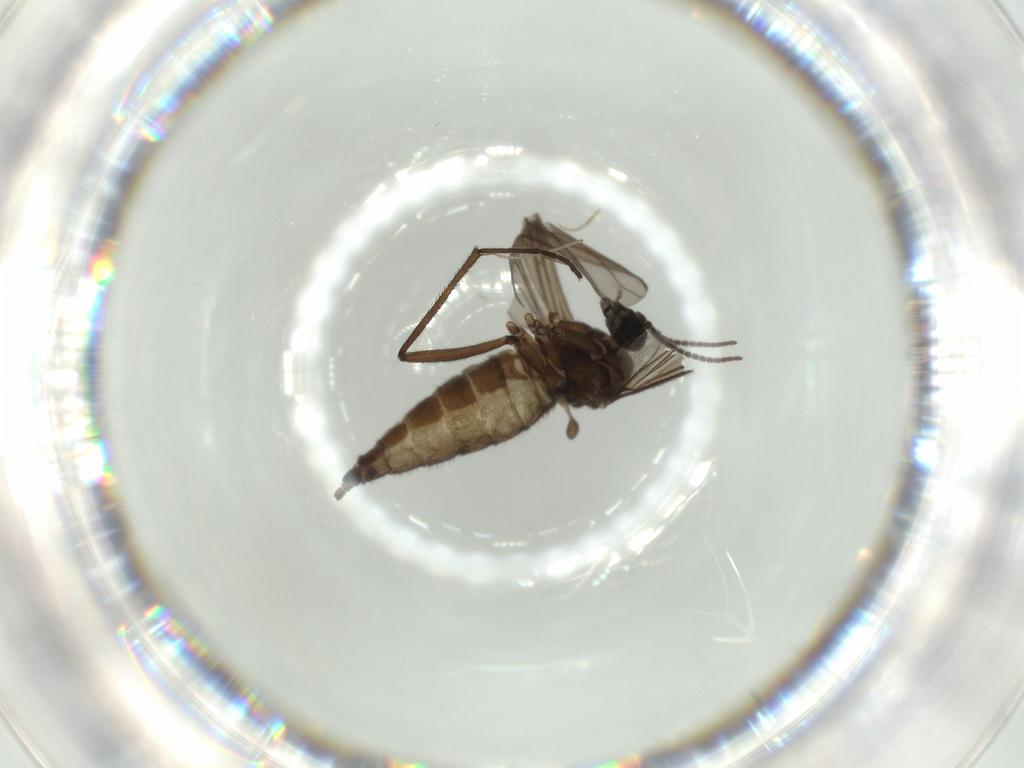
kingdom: Animalia
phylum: Arthropoda
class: Insecta
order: Diptera
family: Sciaridae
